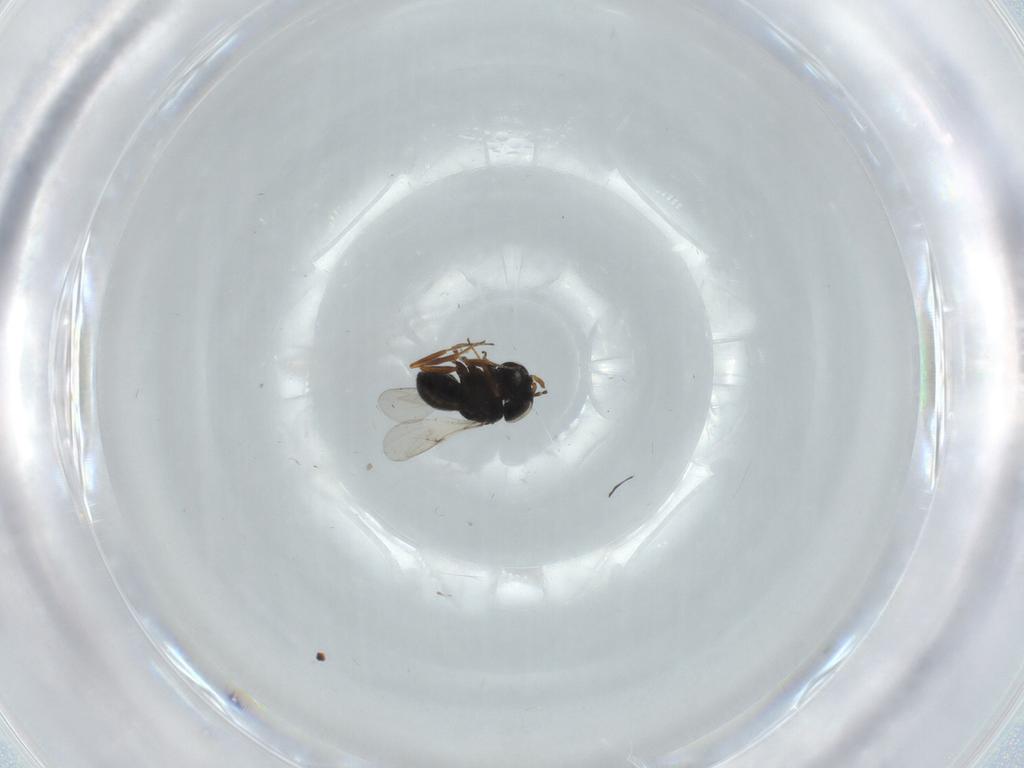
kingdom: Animalia
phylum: Arthropoda
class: Insecta
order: Hymenoptera
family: Scelionidae
